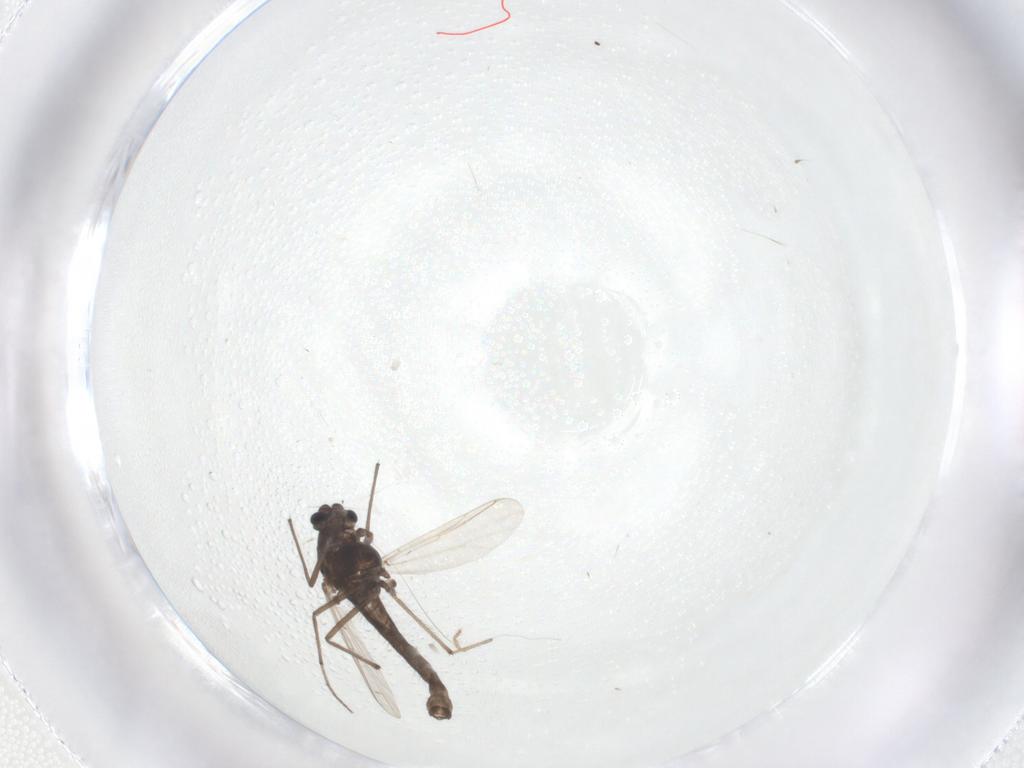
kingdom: Animalia
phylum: Arthropoda
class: Insecta
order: Diptera
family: Chironomidae
